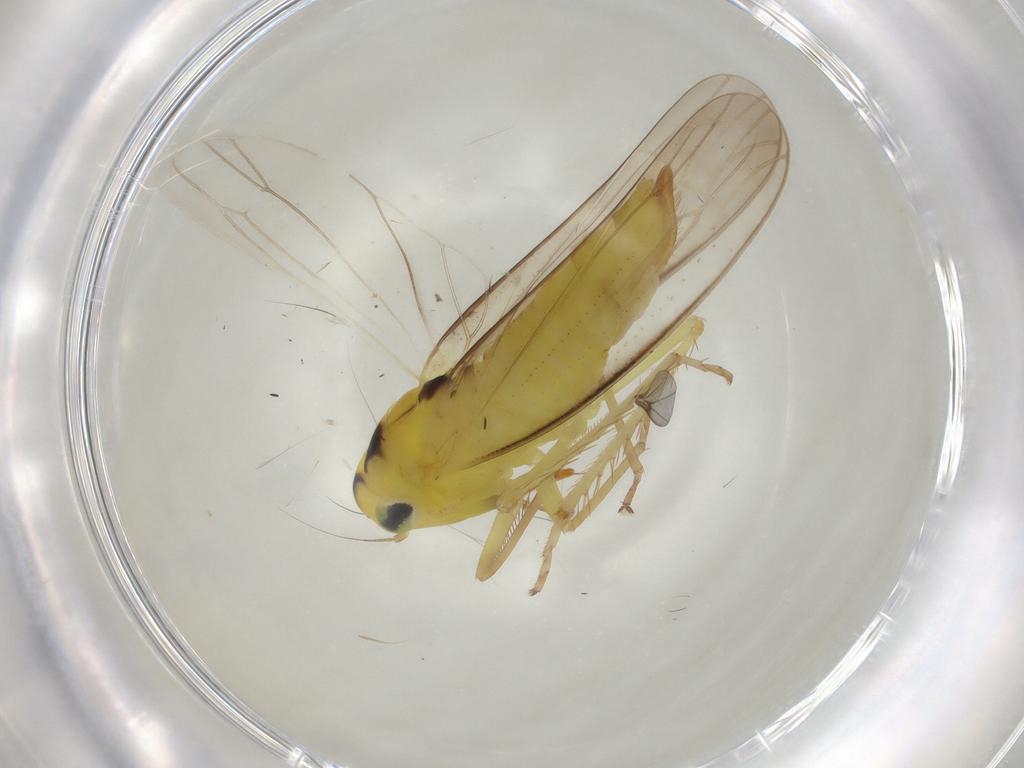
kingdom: Animalia
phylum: Arthropoda
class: Insecta
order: Hemiptera
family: Cicadellidae
